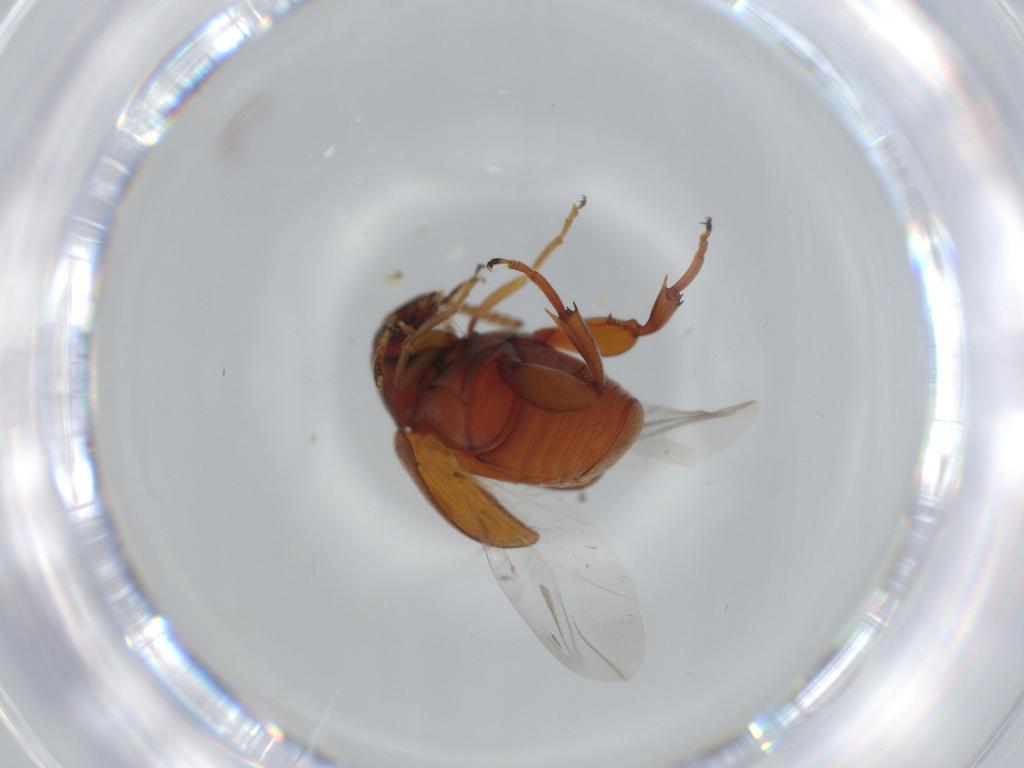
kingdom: Animalia
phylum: Arthropoda
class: Insecta
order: Coleoptera
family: Chrysomelidae
